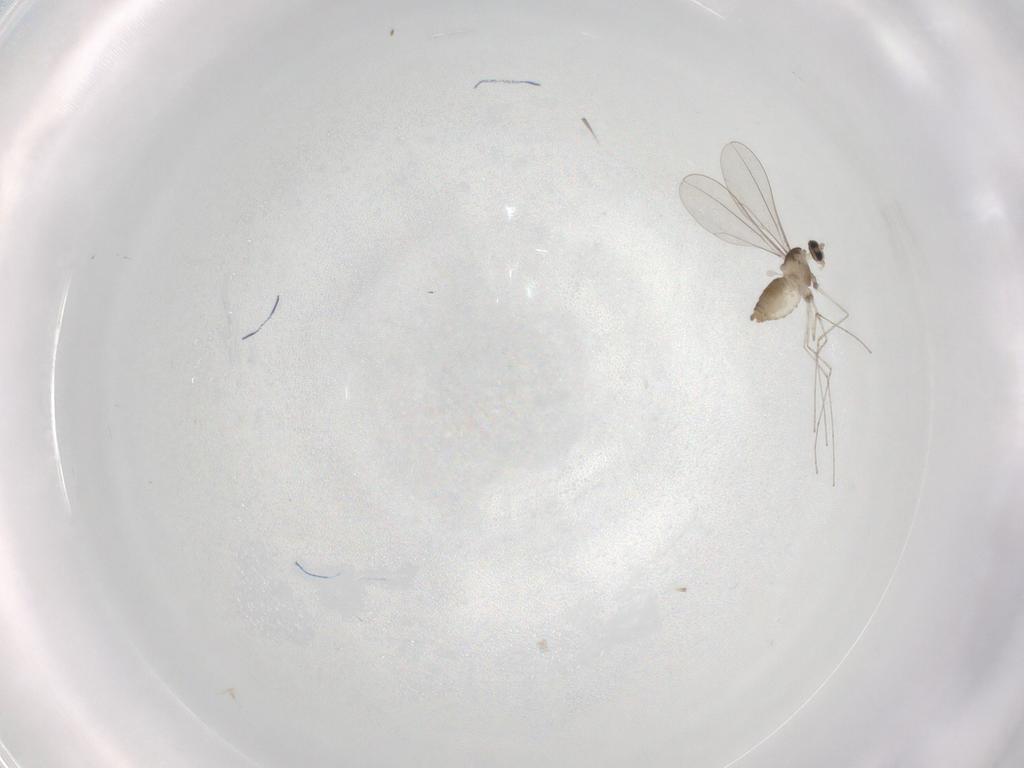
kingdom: Animalia
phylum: Arthropoda
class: Insecta
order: Diptera
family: Cecidomyiidae
